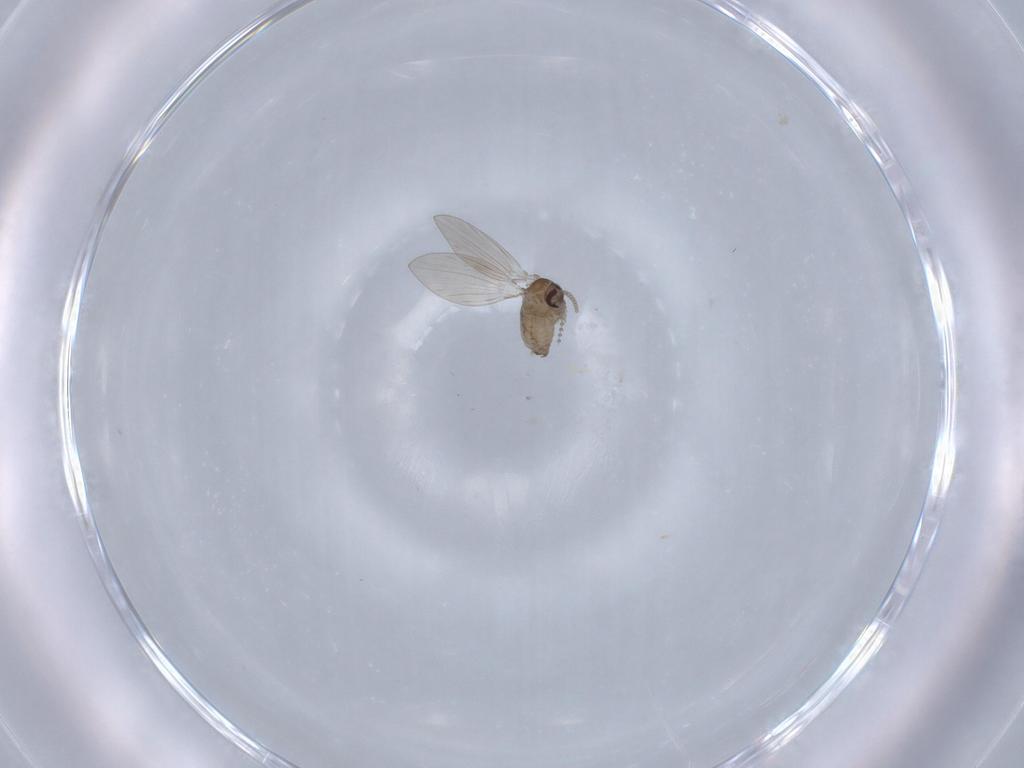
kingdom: Animalia
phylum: Arthropoda
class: Insecta
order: Diptera
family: Ceratopogonidae
